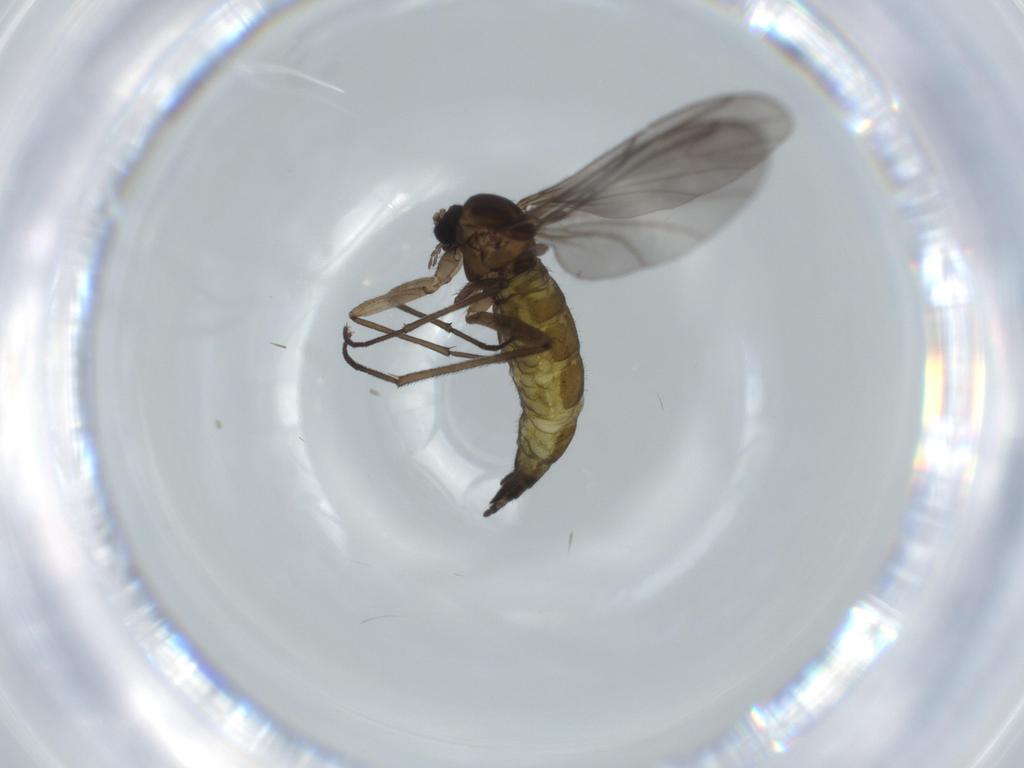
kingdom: Animalia
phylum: Arthropoda
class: Insecta
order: Diptera
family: Sciaridae
